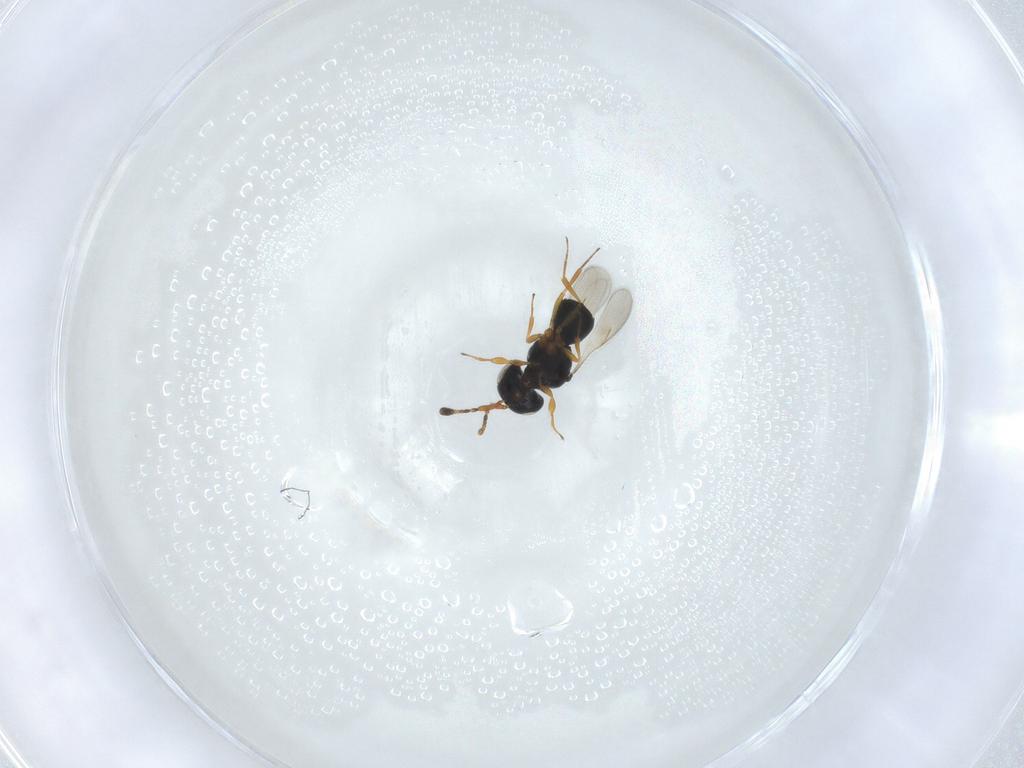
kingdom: Animalia
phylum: Arthropoda
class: Insecta
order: Hymenoptera
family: Scelionidae
